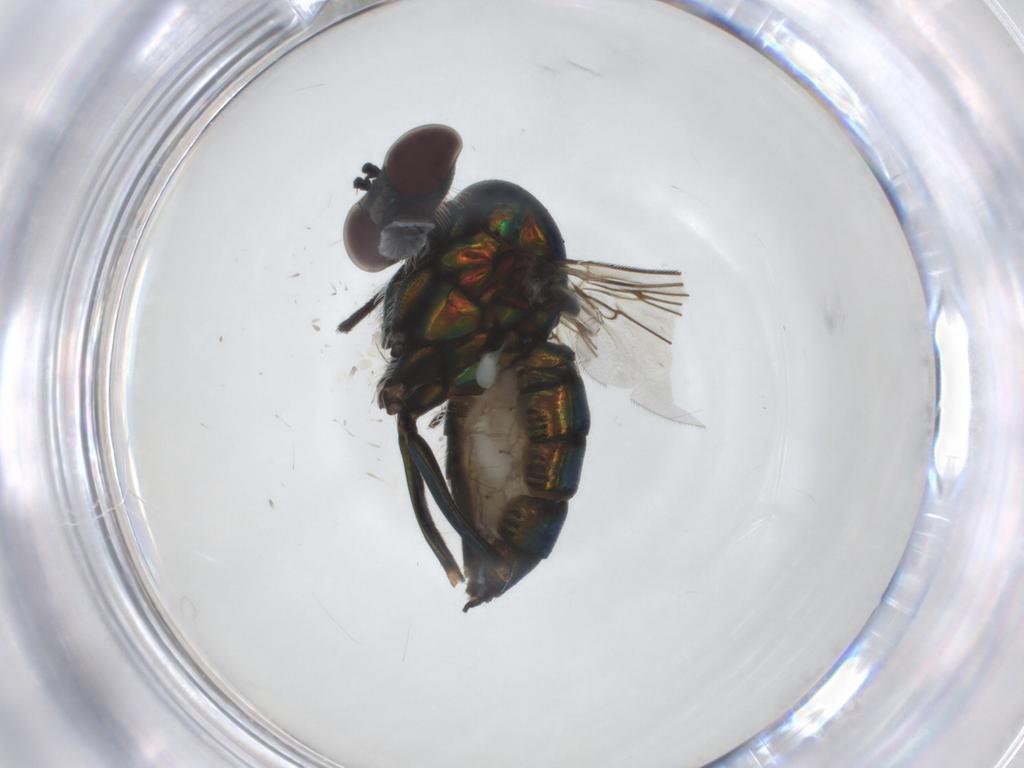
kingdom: Animalia
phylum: Arthropoda
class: Insecta
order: Diptera
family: Dolichopodidae
